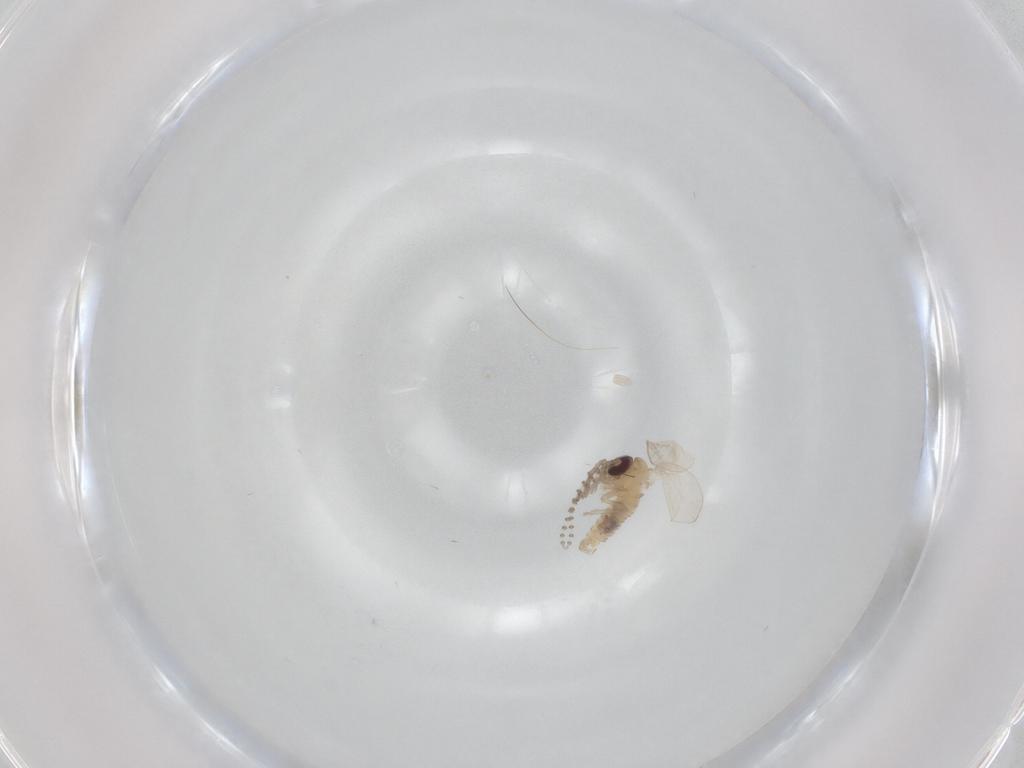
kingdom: Animalia
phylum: Arthropoda
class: Insecta
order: Diptera
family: Psychodidae
